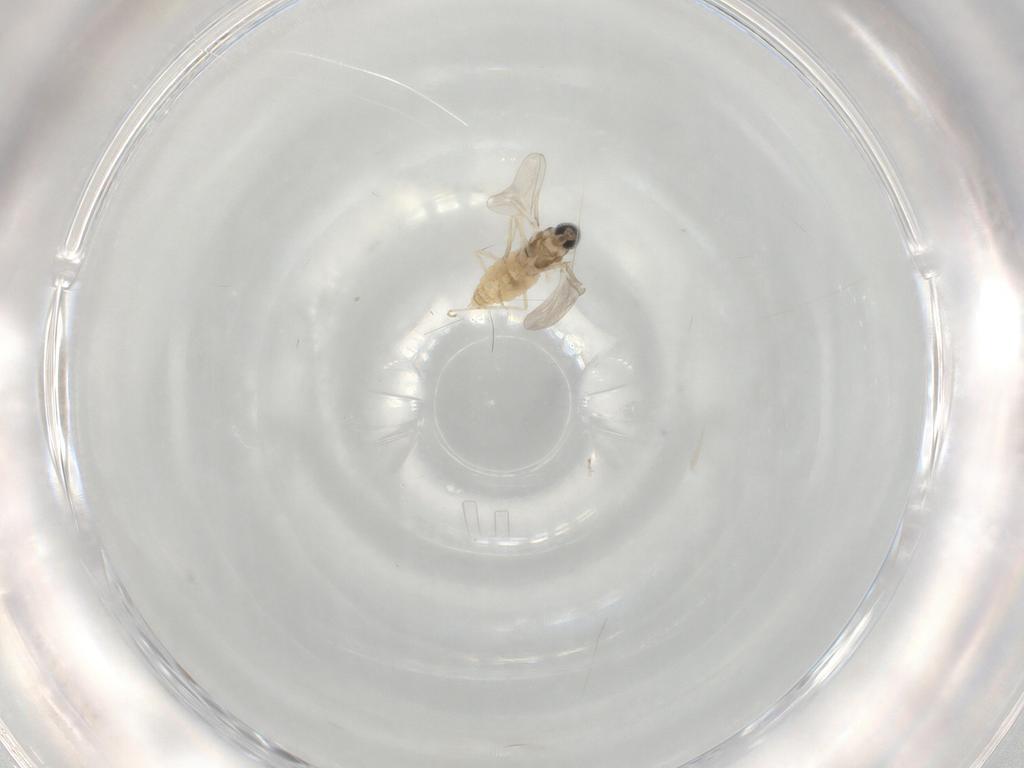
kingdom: Animalia
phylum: Arthropoda
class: Insecta
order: Diptera
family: Cecidomyiidae
